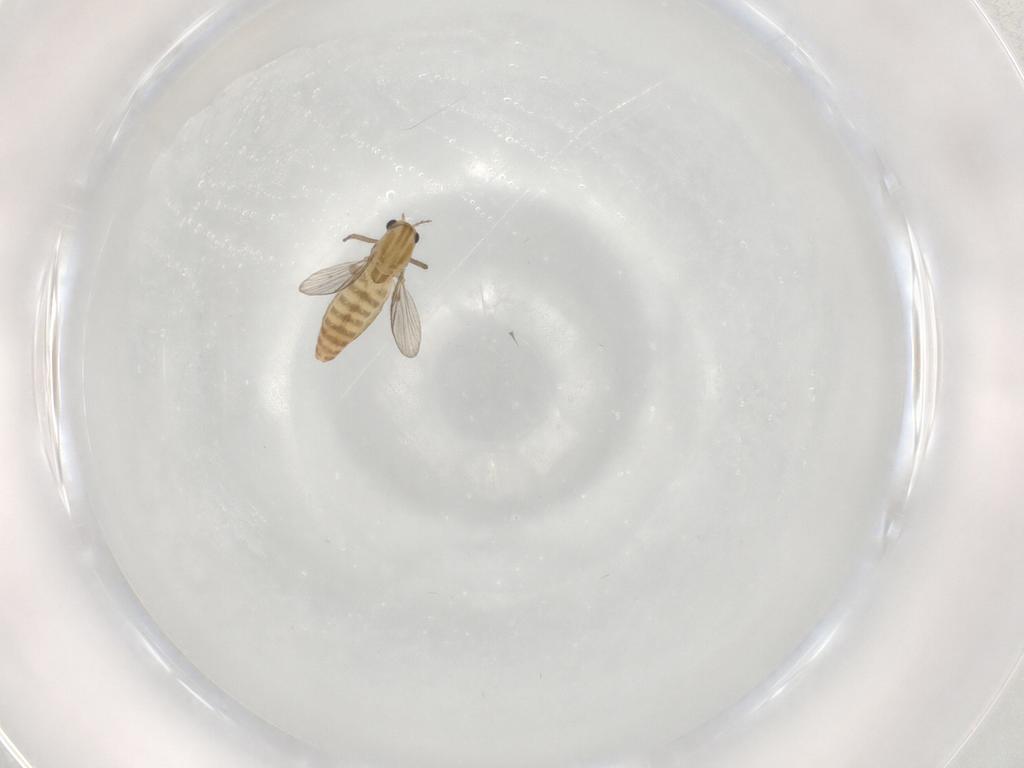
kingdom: Animalia
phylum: Arthropoda
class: Insecta
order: Diptera
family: Chironomidae
